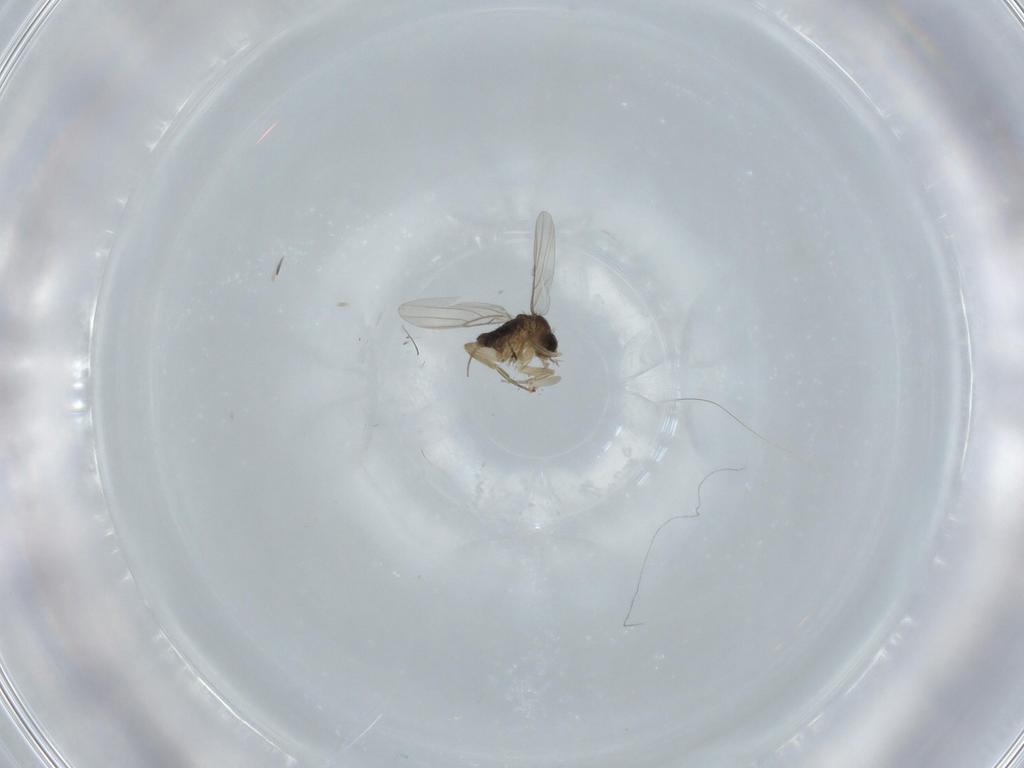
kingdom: Animalia
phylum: Arthropoda
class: Insecta
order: Diptera
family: Phoridae
